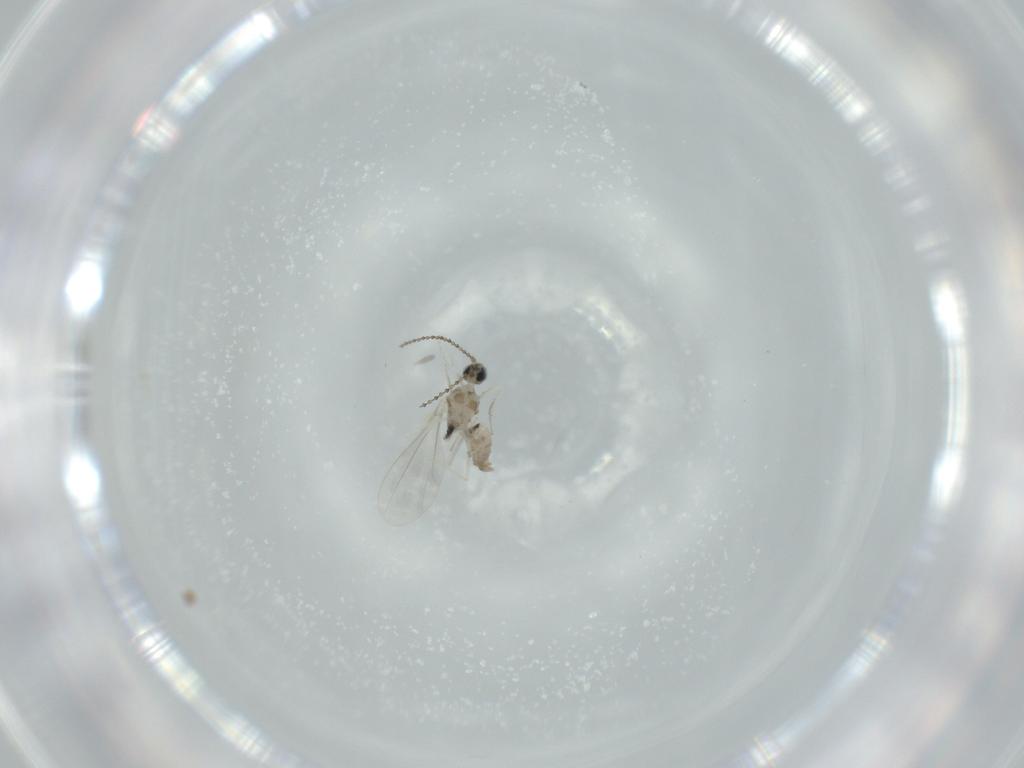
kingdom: Animalia
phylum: Arthropoda
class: Insecta
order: Diptera
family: Cecidomyiidae
